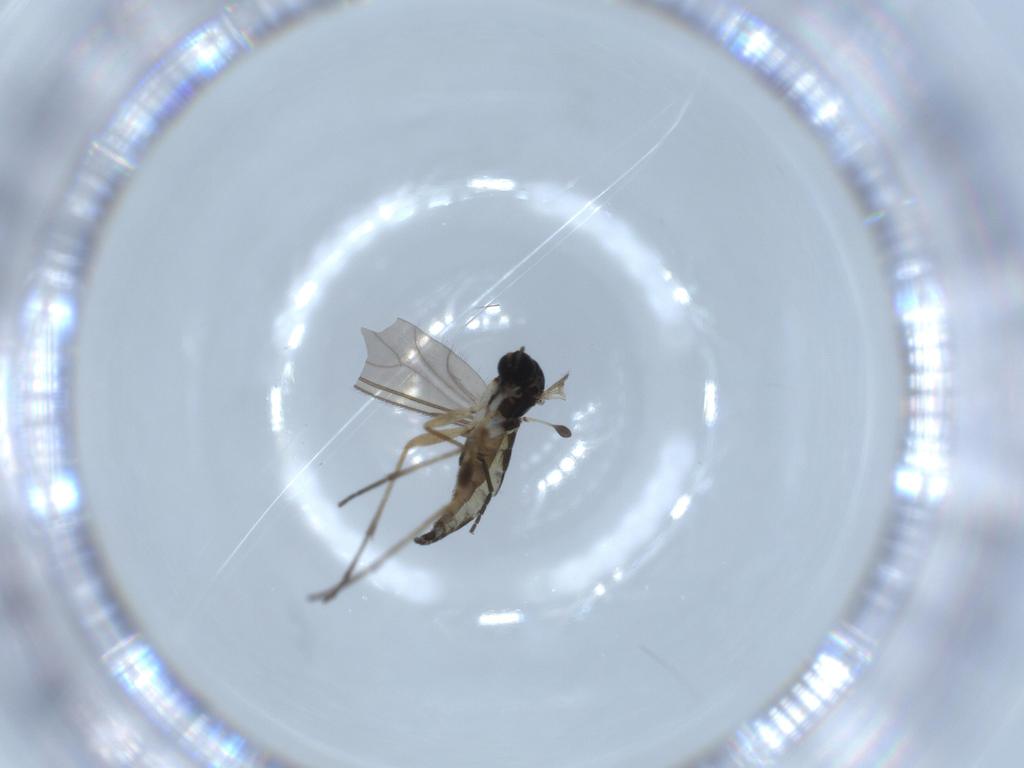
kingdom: Animalia
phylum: Arthropoda
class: Insecta
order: Diptera
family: Sciaridae
